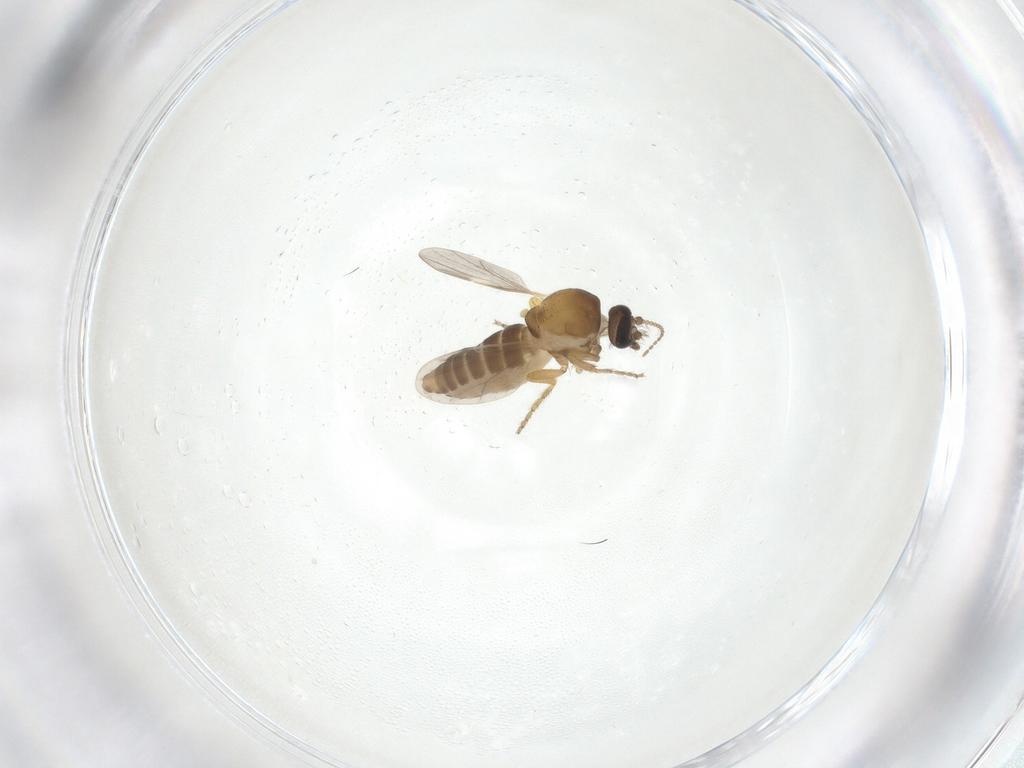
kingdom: Animalia
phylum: Arthropoda
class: Insecta
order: Diptera
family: Ceratopogonidae
